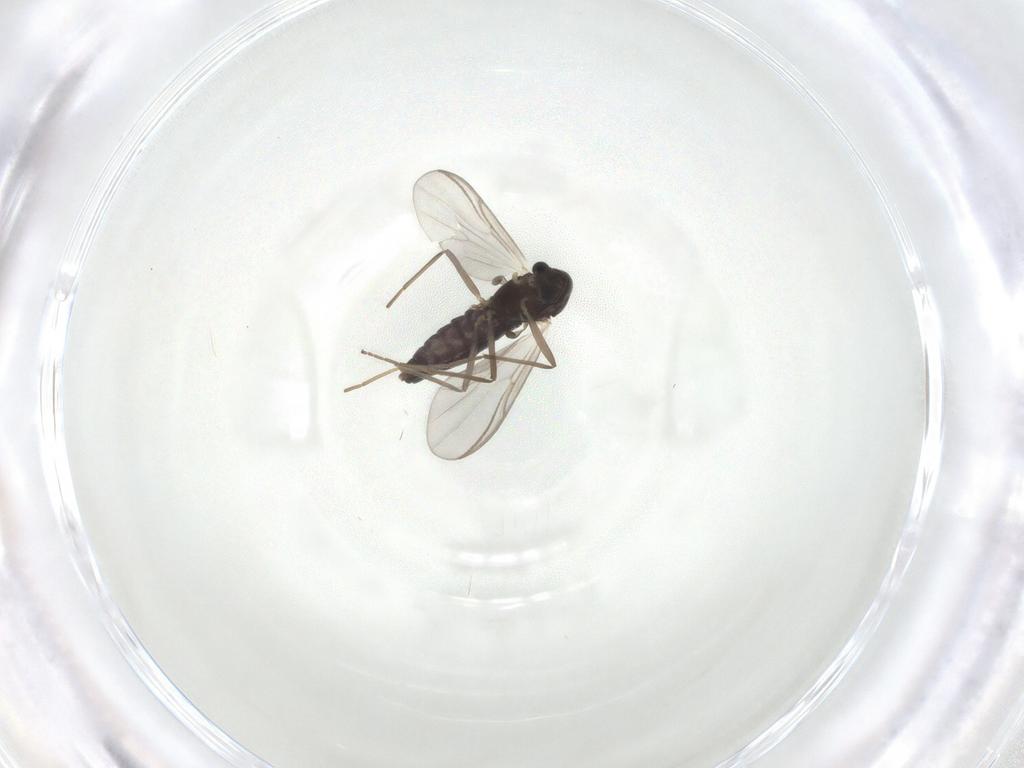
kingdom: Animalia
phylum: Arthropoda
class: Insecta
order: Diptera
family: Chironomidae
